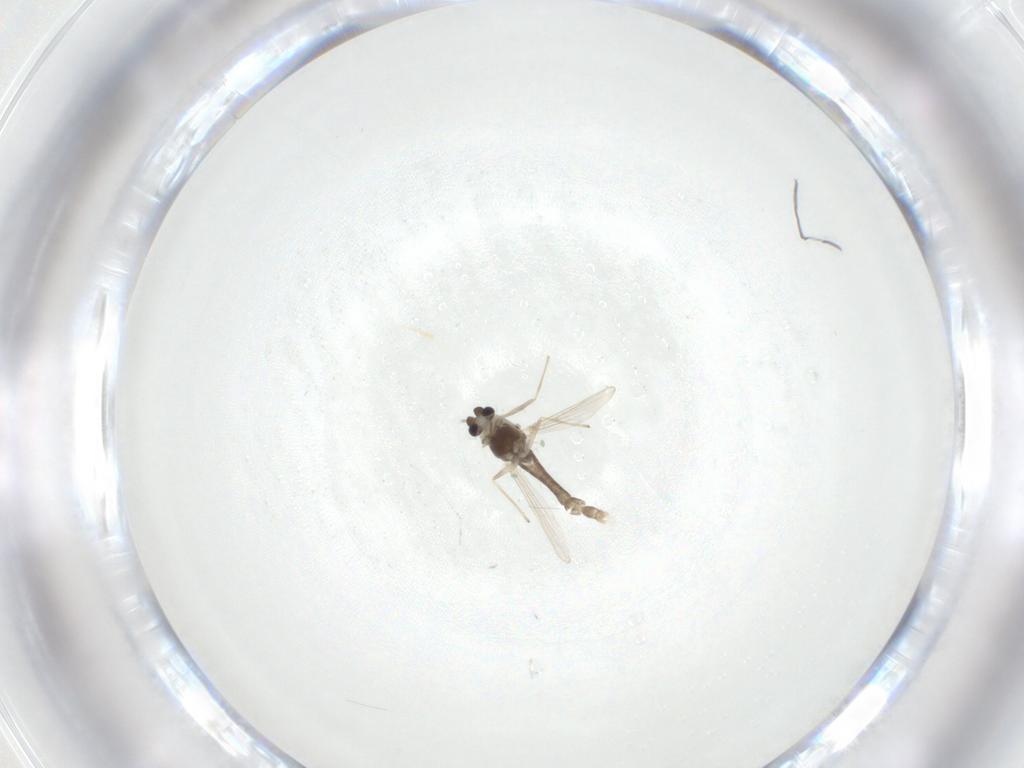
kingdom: Animalia
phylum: Arthropoda
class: Insecta
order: Diptera
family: Chironomidae
